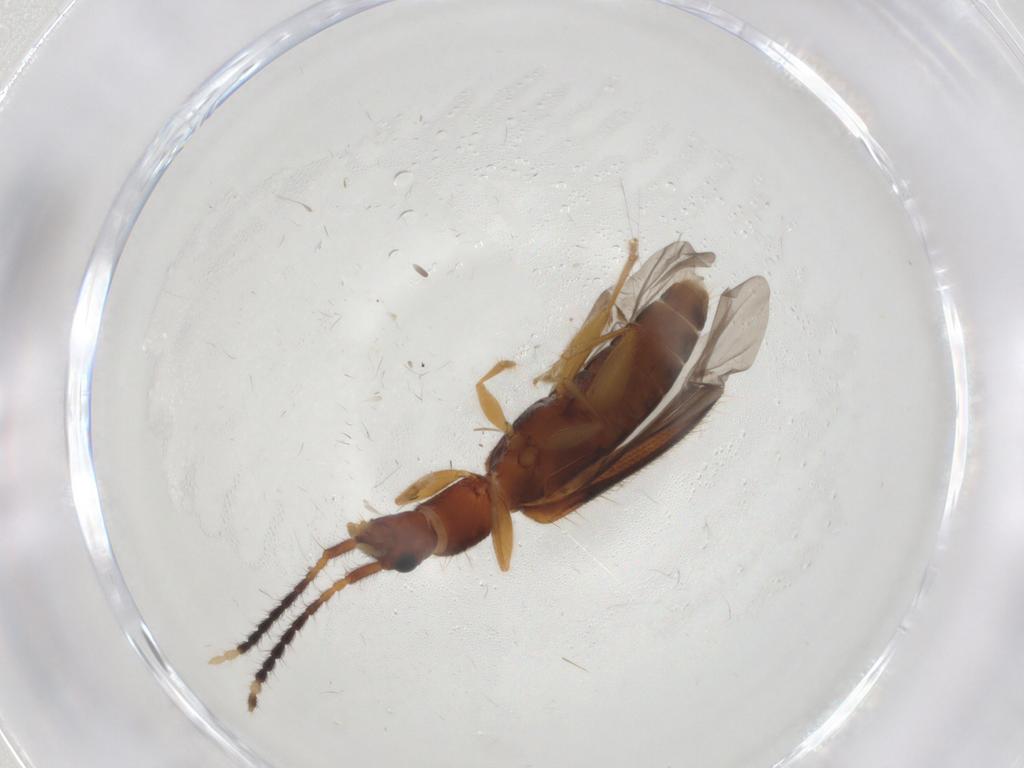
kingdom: Animalia
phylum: Arthropoda
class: Insecta
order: Coleoptera
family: Silvanidae
